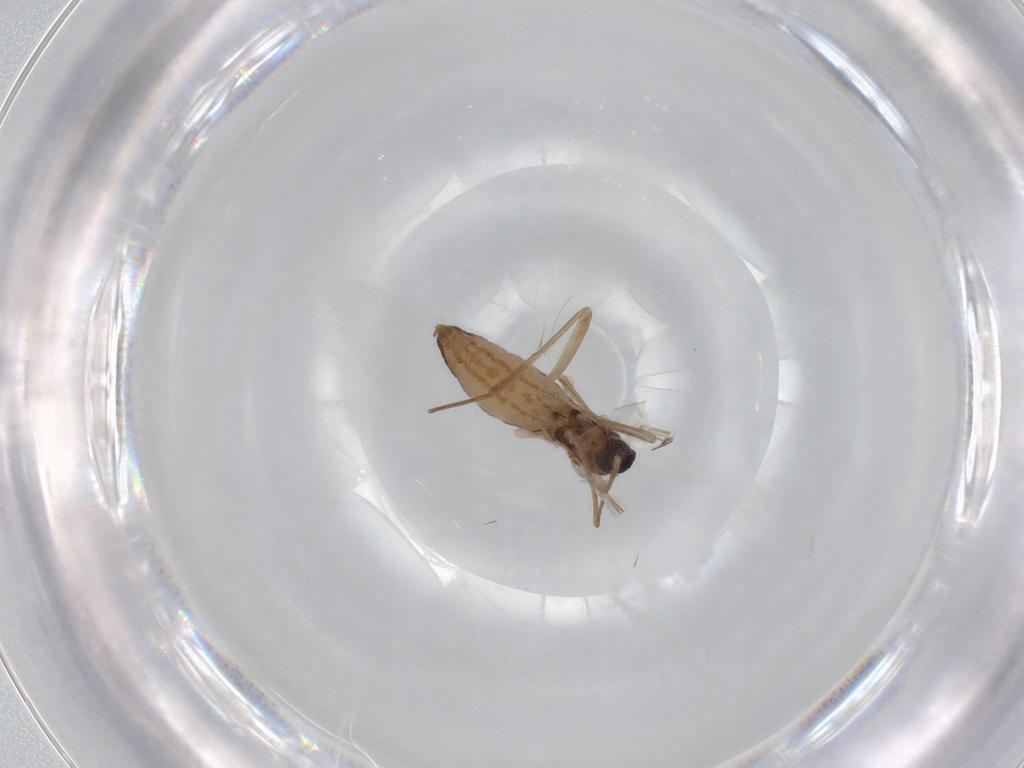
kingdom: Animalia
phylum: Arthropoda
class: Insecta
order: Diptera
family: Cecidomyiidae
